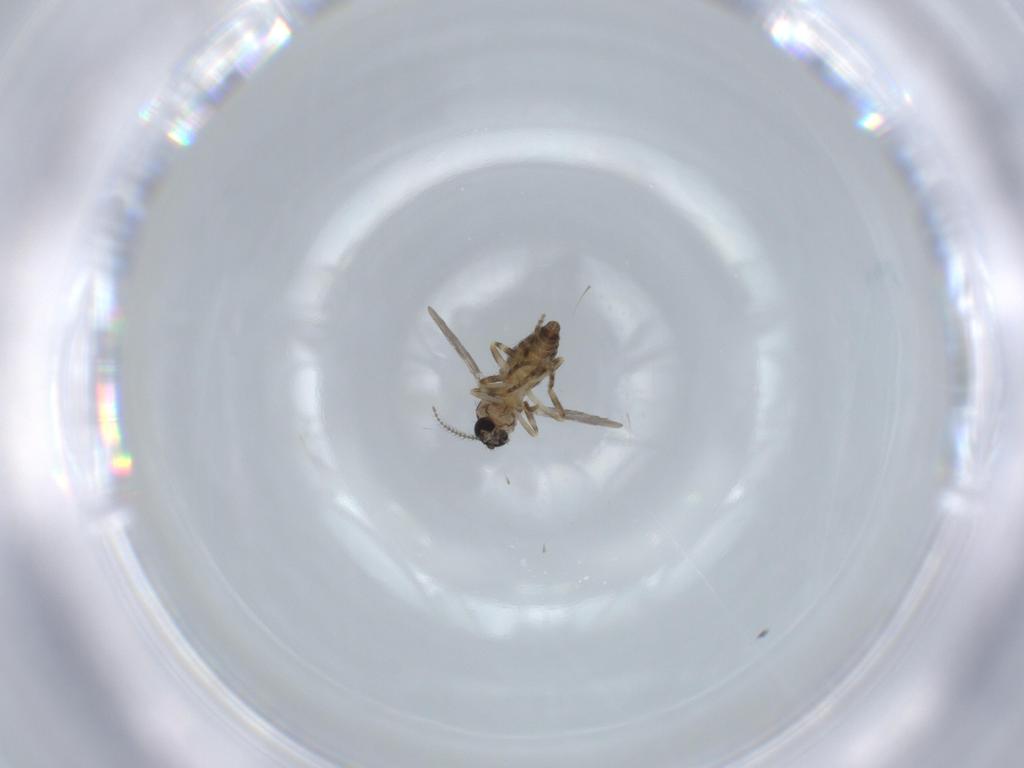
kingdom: Animalia
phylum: Arthropoda
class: Insecta
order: Diptera
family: Ceratopogonidae
